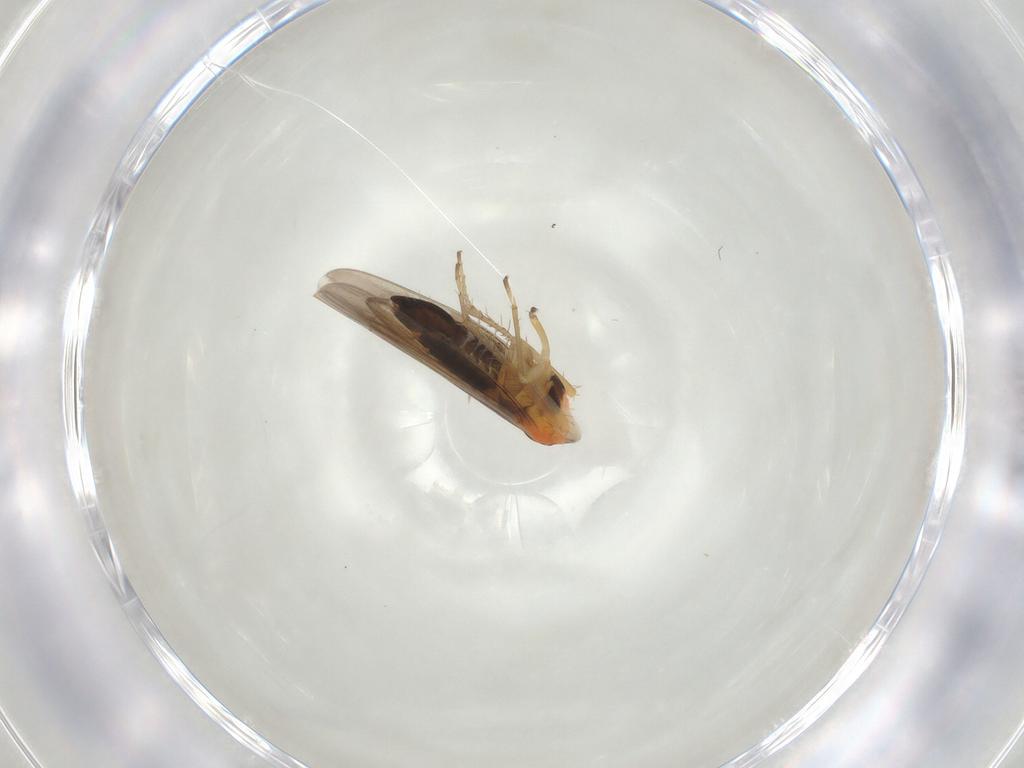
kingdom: Animalia
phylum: Arthropoda
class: Insecta
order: Hemiptera
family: Cicadellidae
